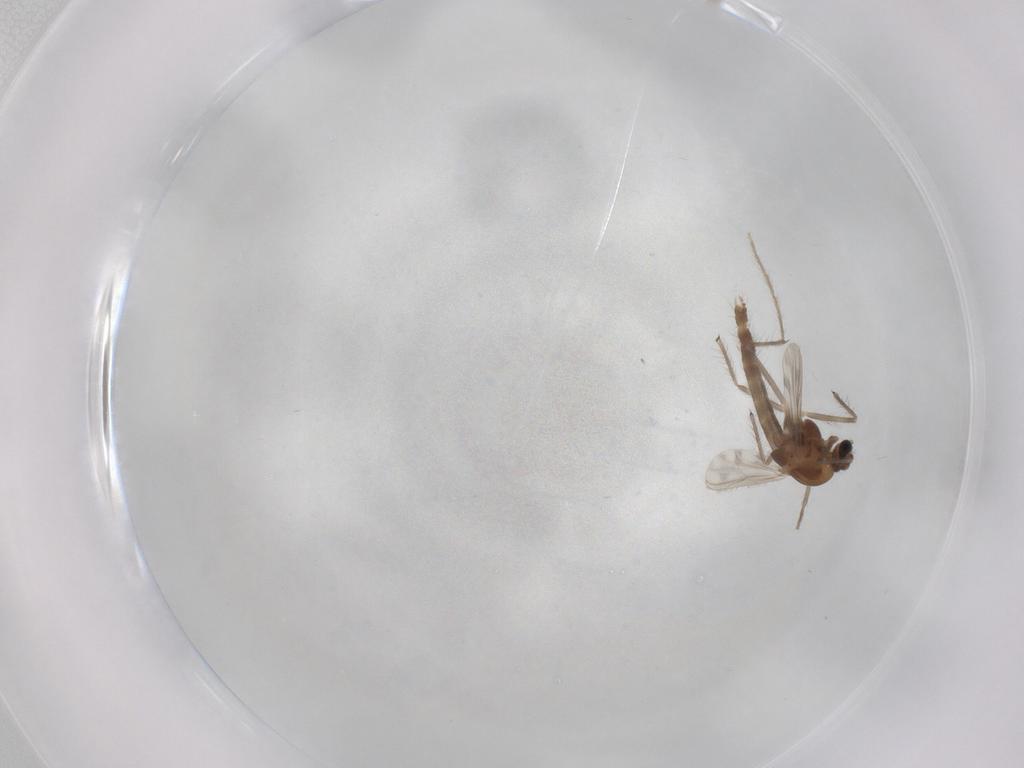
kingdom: Animalia
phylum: Arthropoda
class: Insecta
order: Diptera
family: Chironomidae
